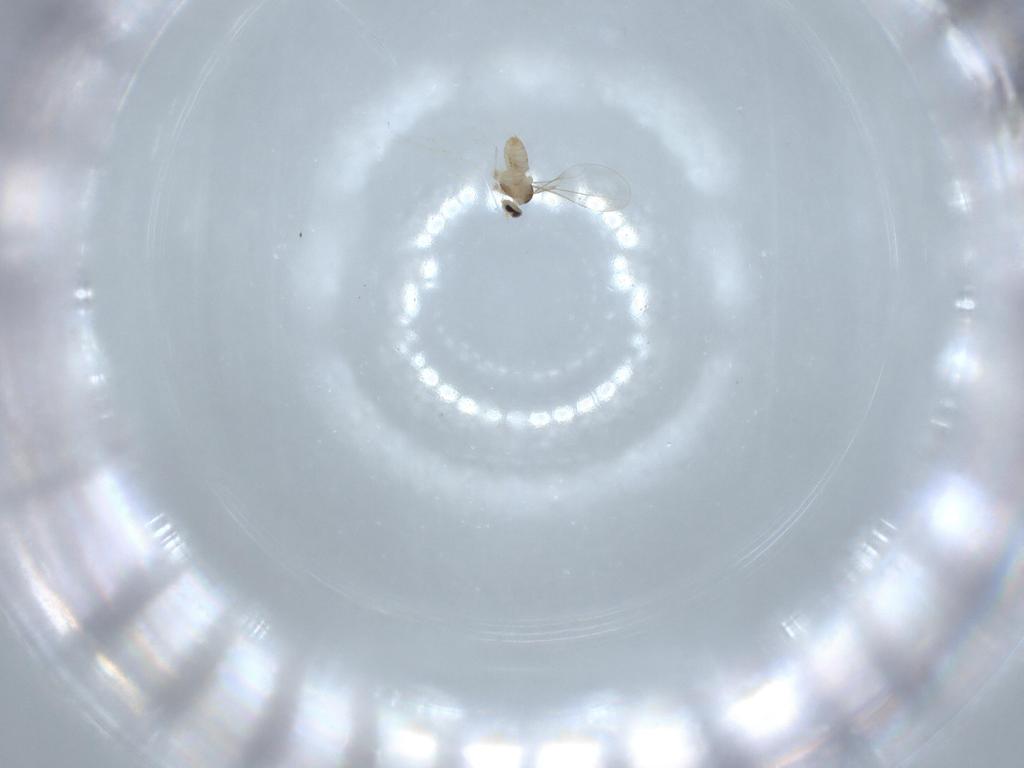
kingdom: Animalia
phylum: Arthropoda
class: Insecta
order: Diptera
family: Cecidomyiidae
